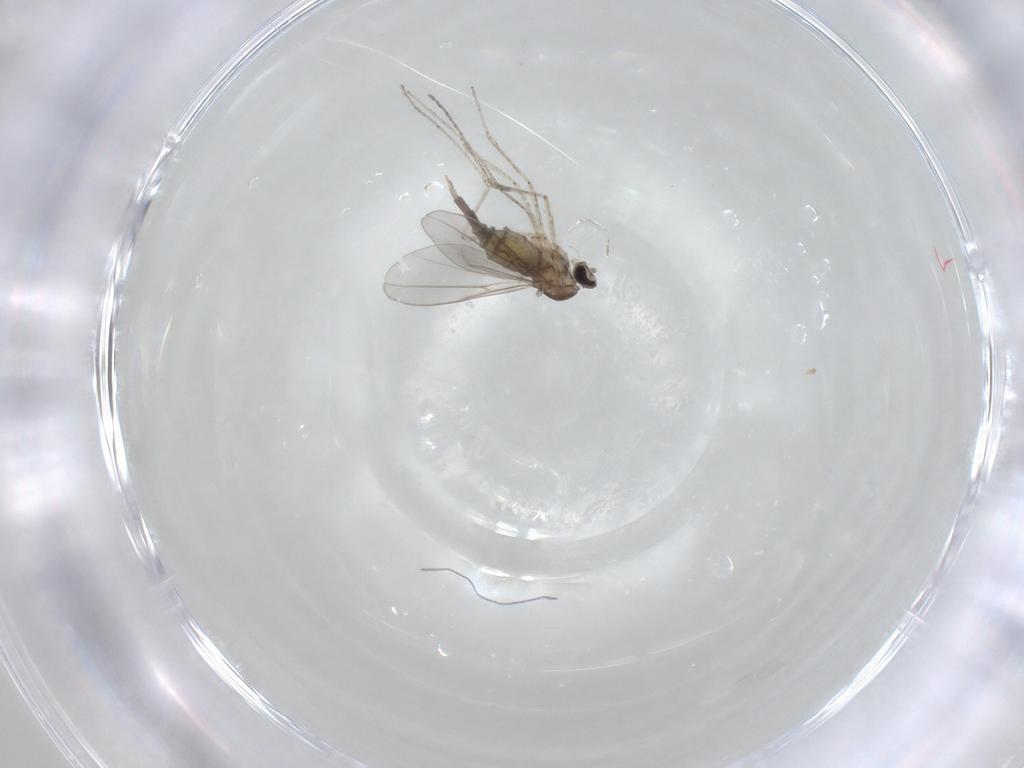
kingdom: Animalia
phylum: Arthropoda
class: Insecta
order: Diptera
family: Cecidomyiidae
